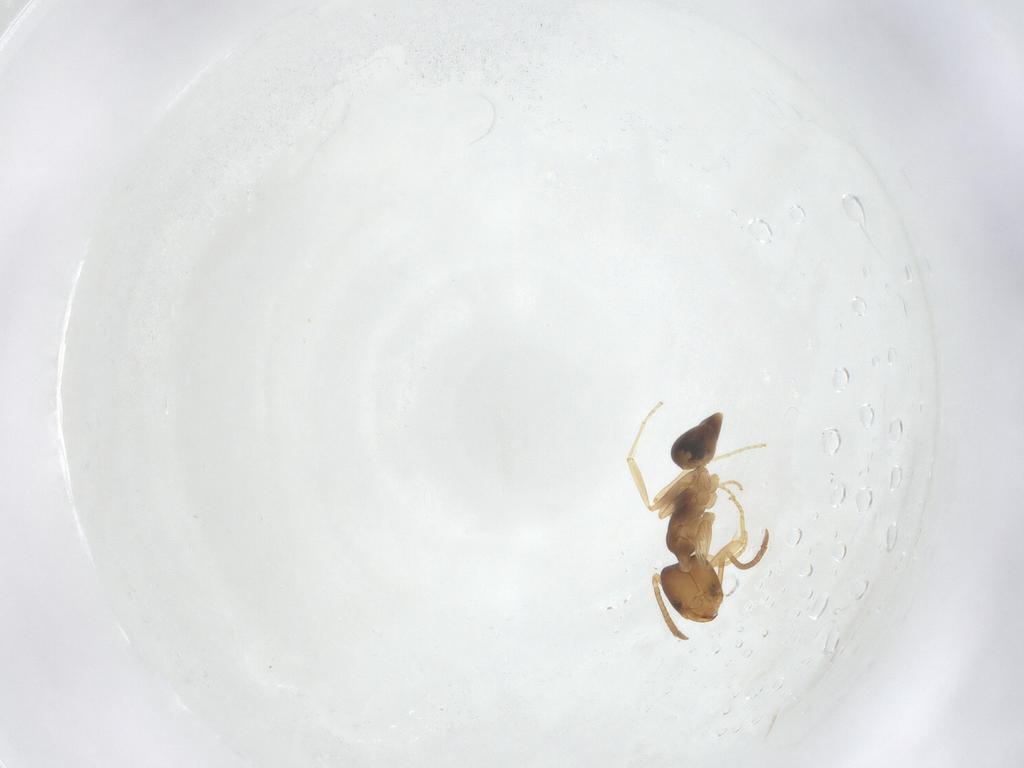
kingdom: Animalia
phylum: Arthropoda
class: Insecta
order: Hymenoptera
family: Formicidae
